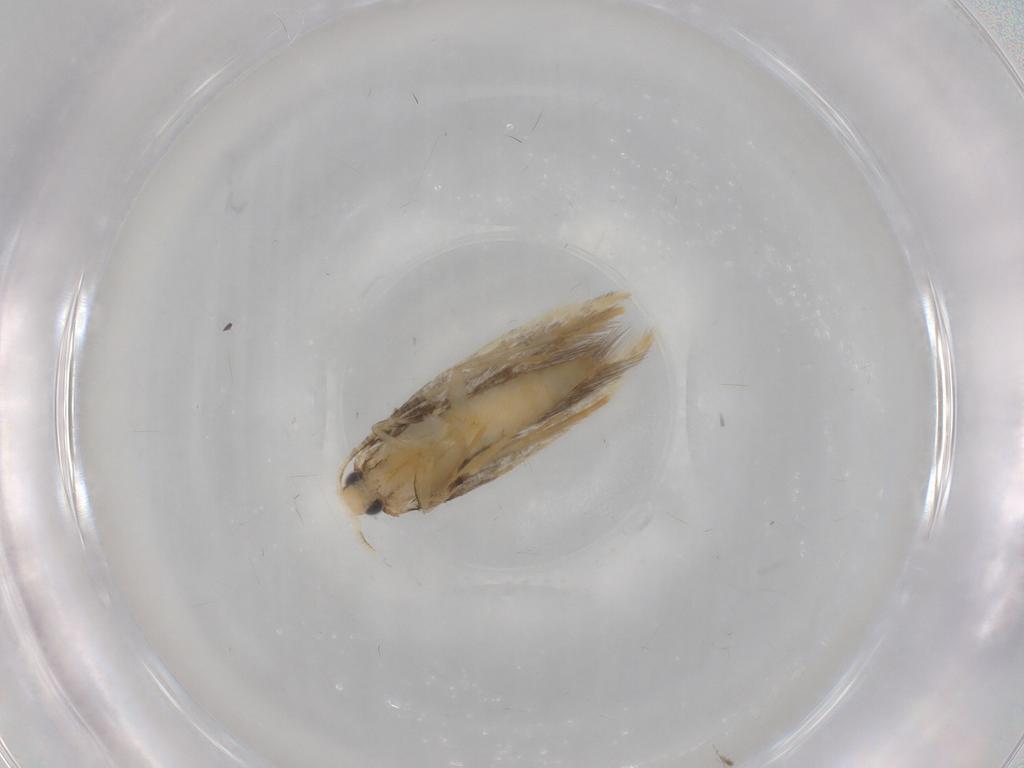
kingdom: Animalia
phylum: Arthropoda
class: Insecta
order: Lepidoptera
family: Tineidae
